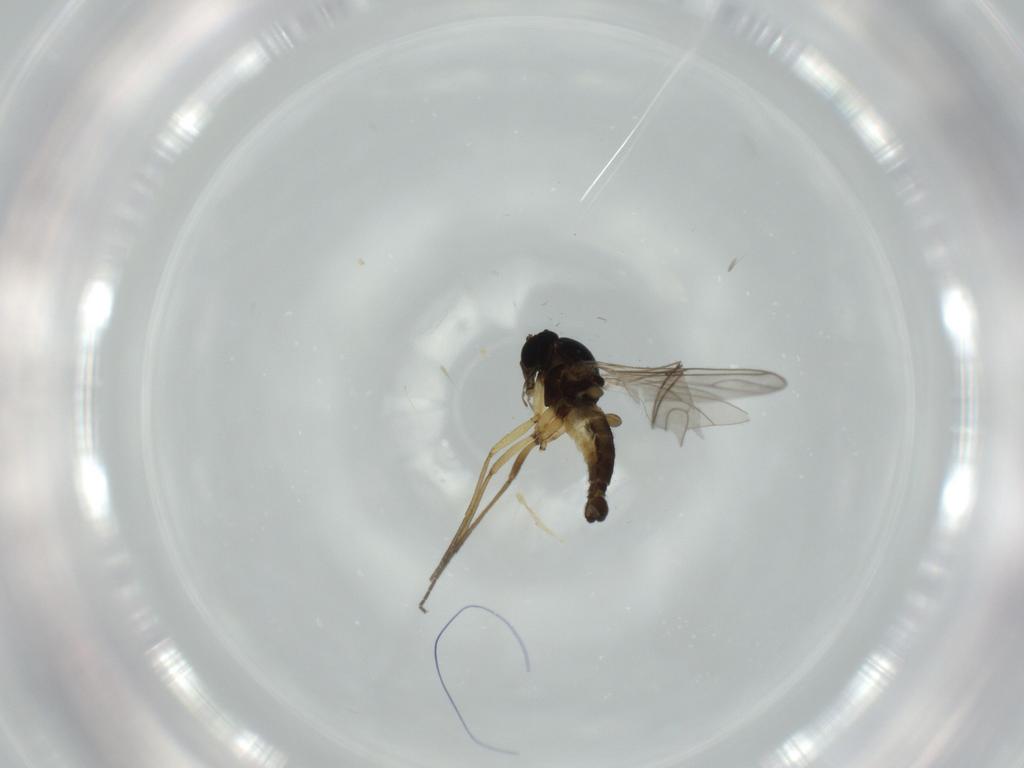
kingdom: Animalia
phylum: Arthropoda
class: Insecta
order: Diptera
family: Sciaridae
